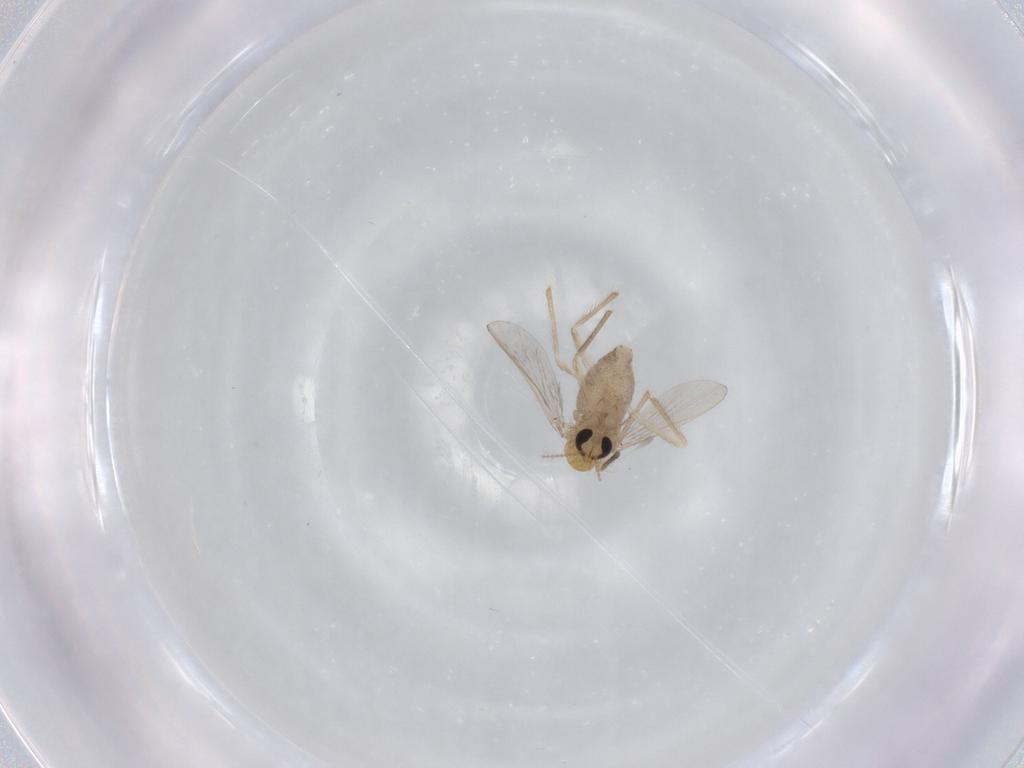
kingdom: Animalia
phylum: Arthropoda
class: Insecta
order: Diptera
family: Chironomidae
